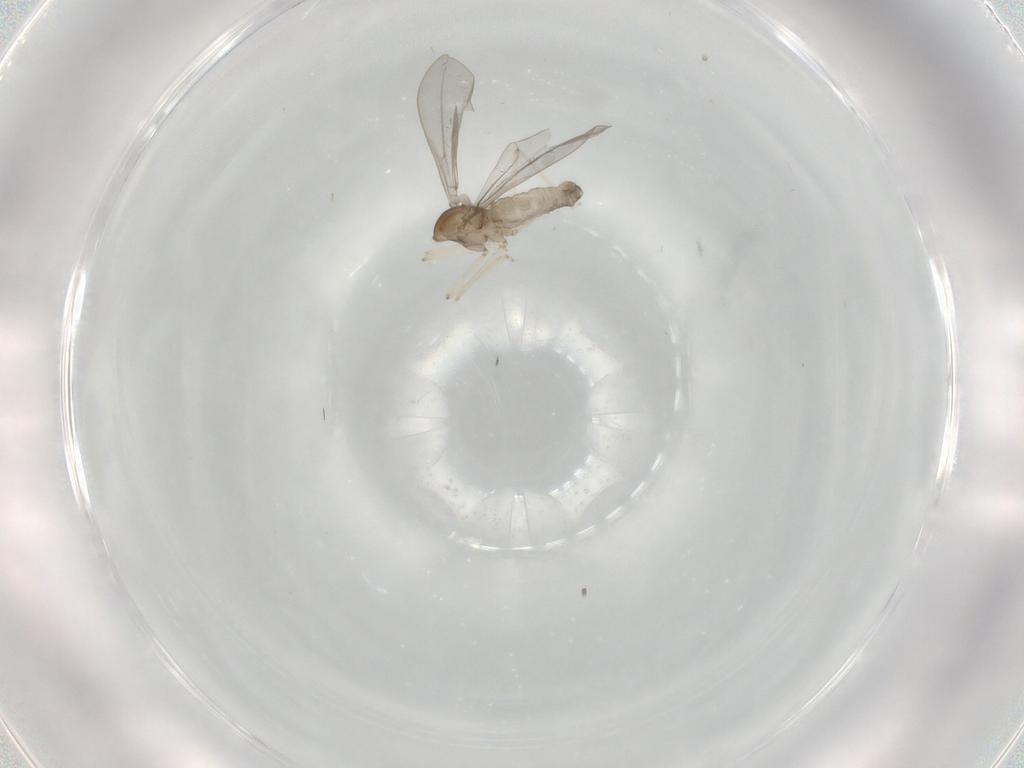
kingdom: Animalia
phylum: Arthropoda
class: Insecta
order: Diptera
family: Cecidomyiidae
